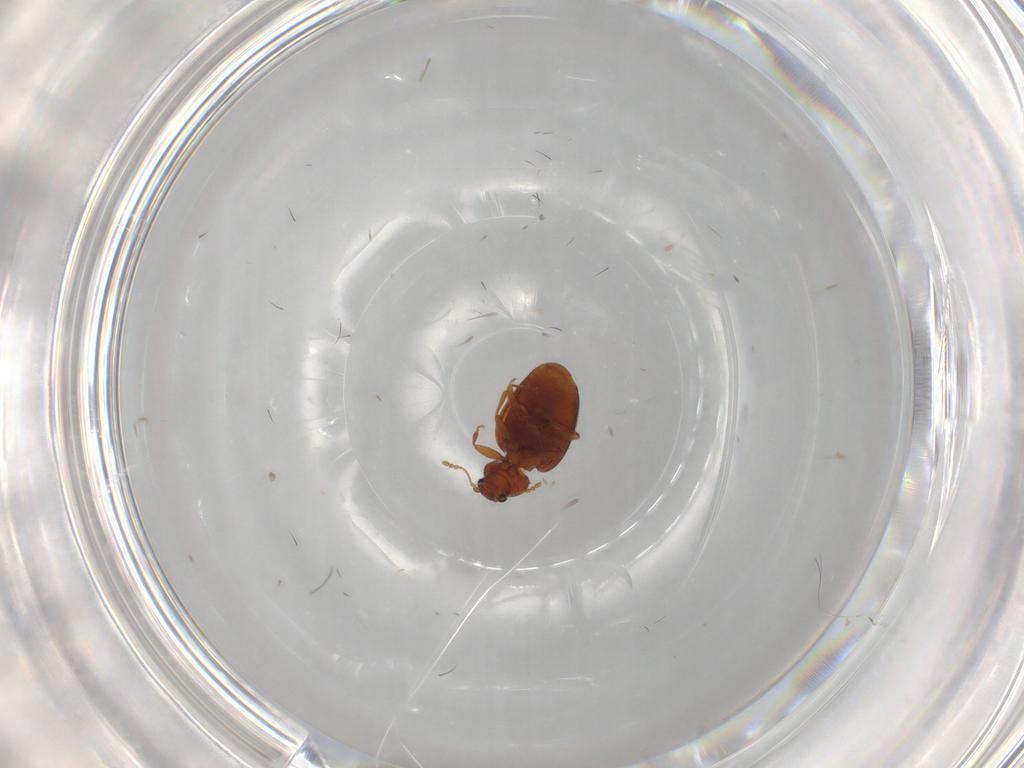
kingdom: Animalia
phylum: Arthropoda
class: Insecta
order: Coleoptera
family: Latridiidae
